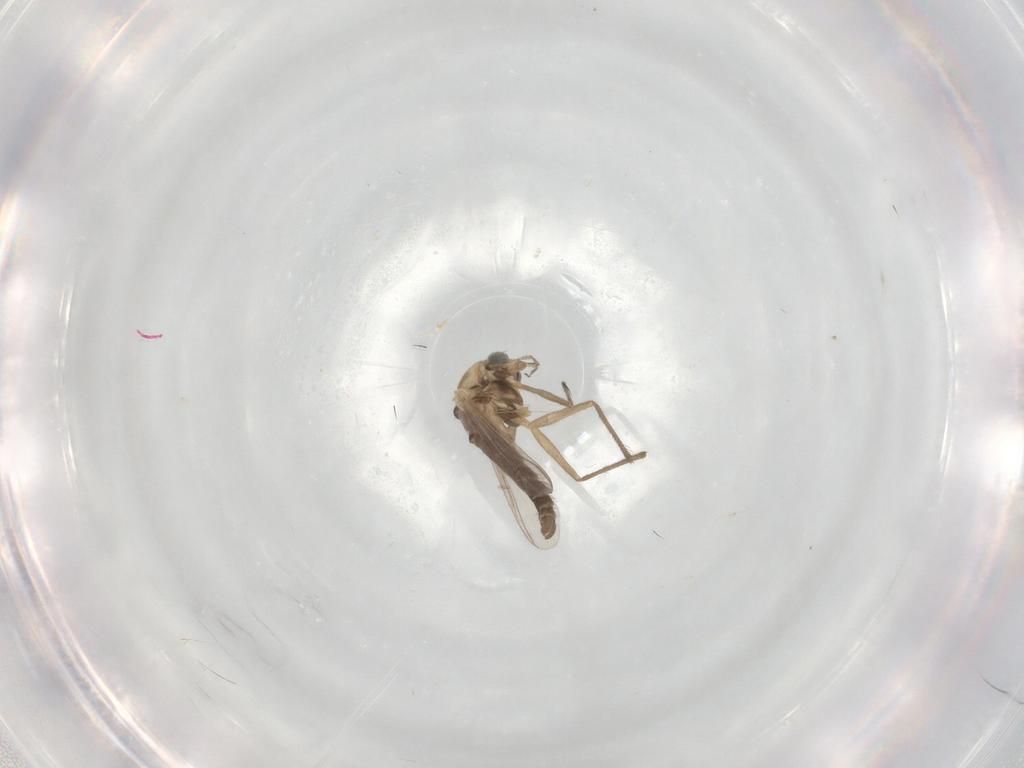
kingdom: Animalia
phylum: Arthropoda
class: Insecta
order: Diptera
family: Chironomidae
